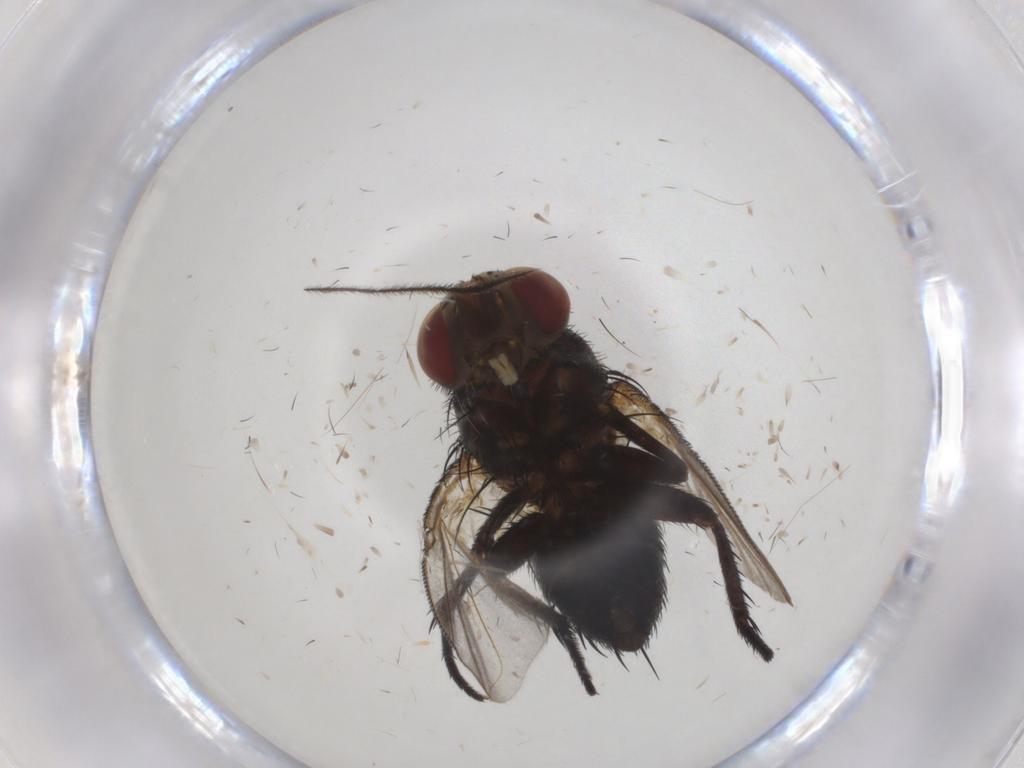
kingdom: Animalia
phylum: Arthropoda
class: Insecta
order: Diptera
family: Tachinidae
